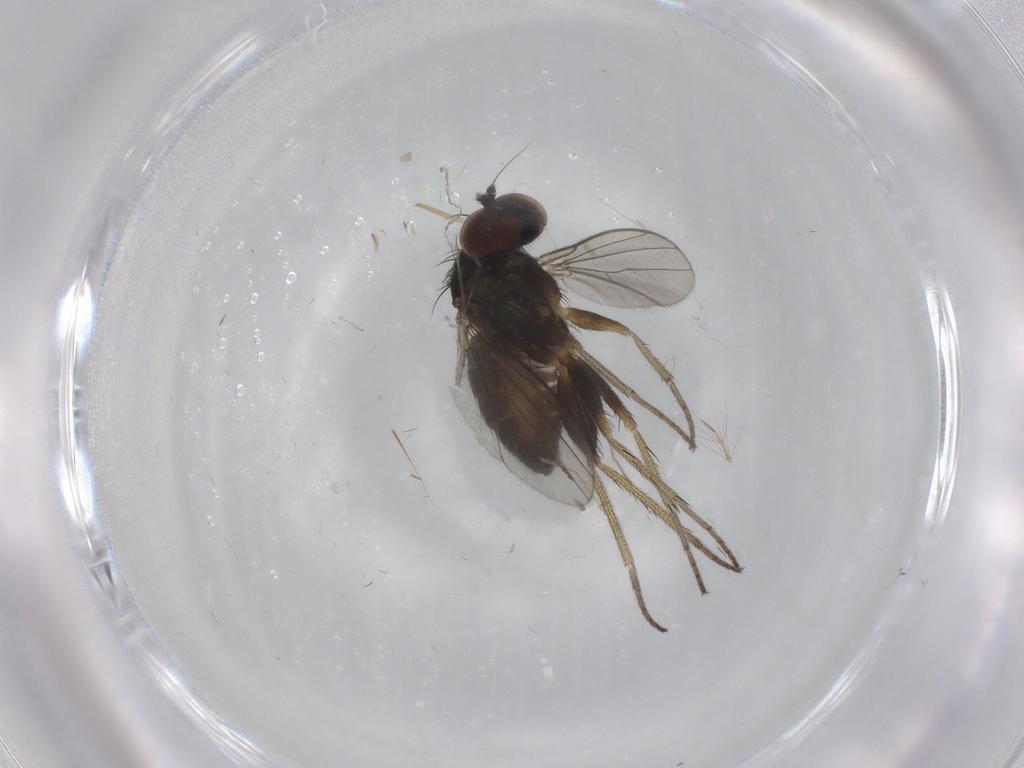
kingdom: Animalia
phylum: Arthropoda
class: Insecta
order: Diptera
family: Cecidomyiidae
